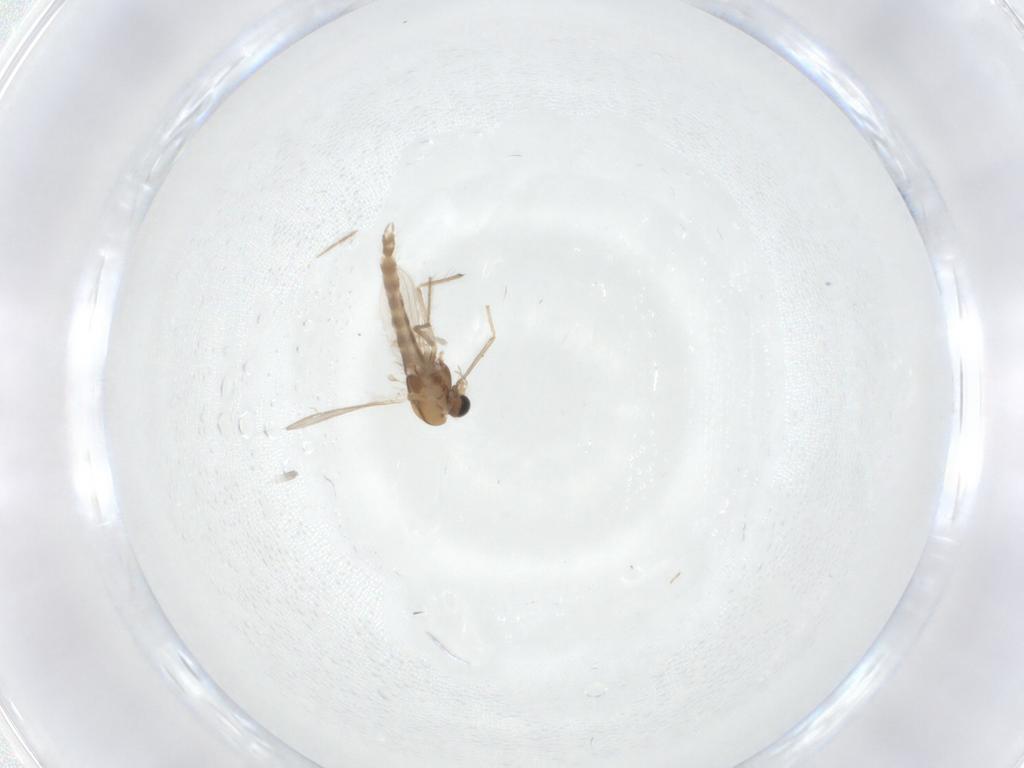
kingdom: Animalia
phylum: Arthropoda
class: Insecta
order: Diptera
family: Chironomidae
